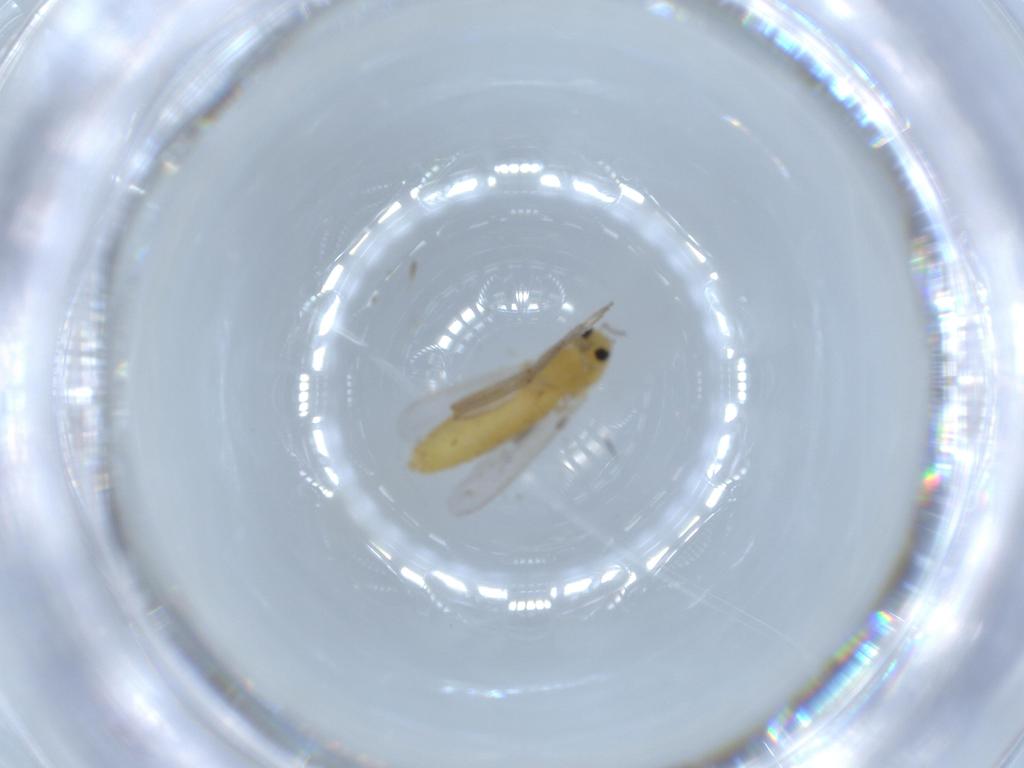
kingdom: Animalia
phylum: Arthropoda
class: Insecta
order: Diptera
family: Chironomidae
